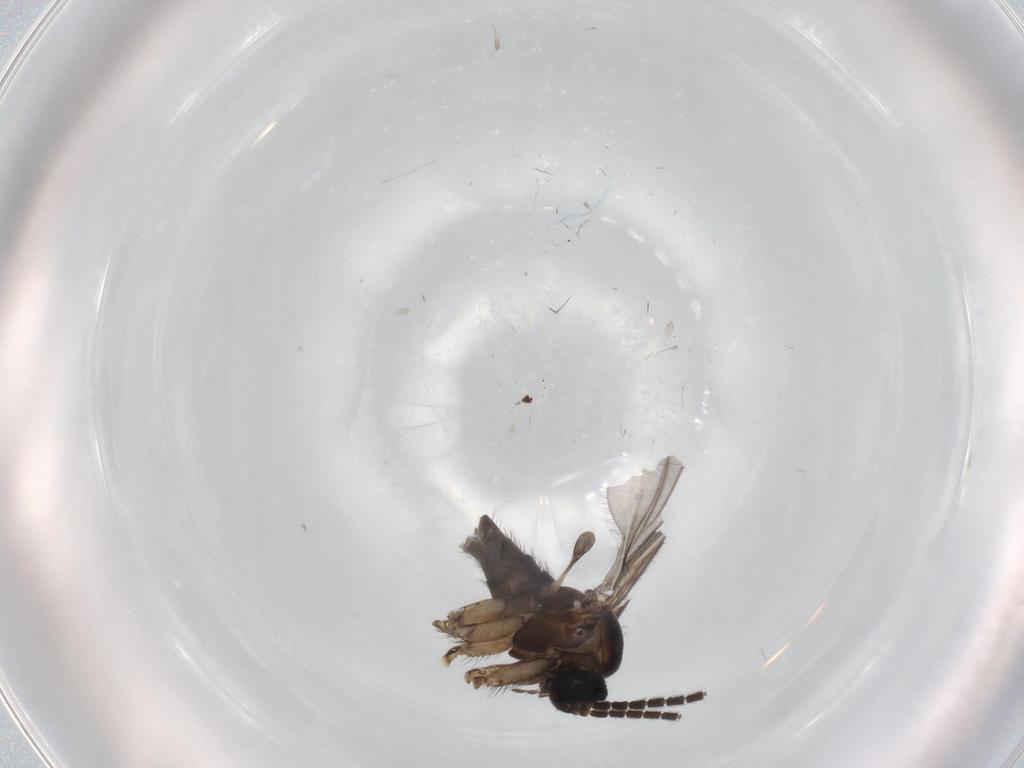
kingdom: Animalia
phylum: Arthropoda
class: Insecta
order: Diptera
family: Sciaridae
